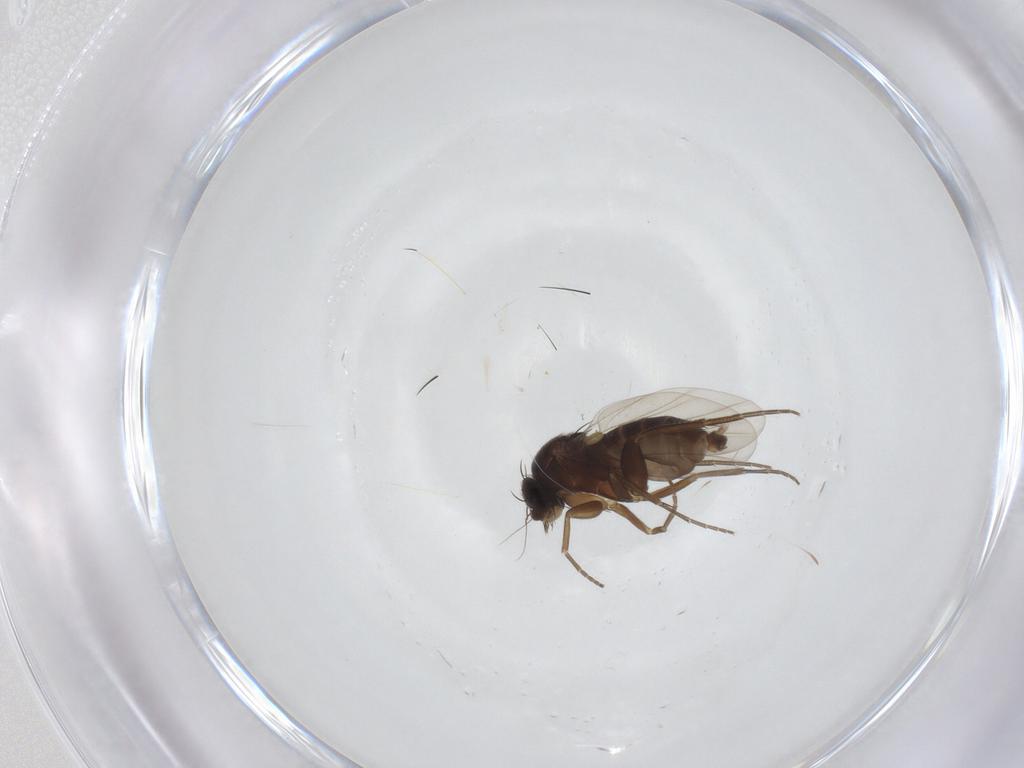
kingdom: Animalia
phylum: Arthropoda
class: Insecta
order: Diptera
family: Phoridae
